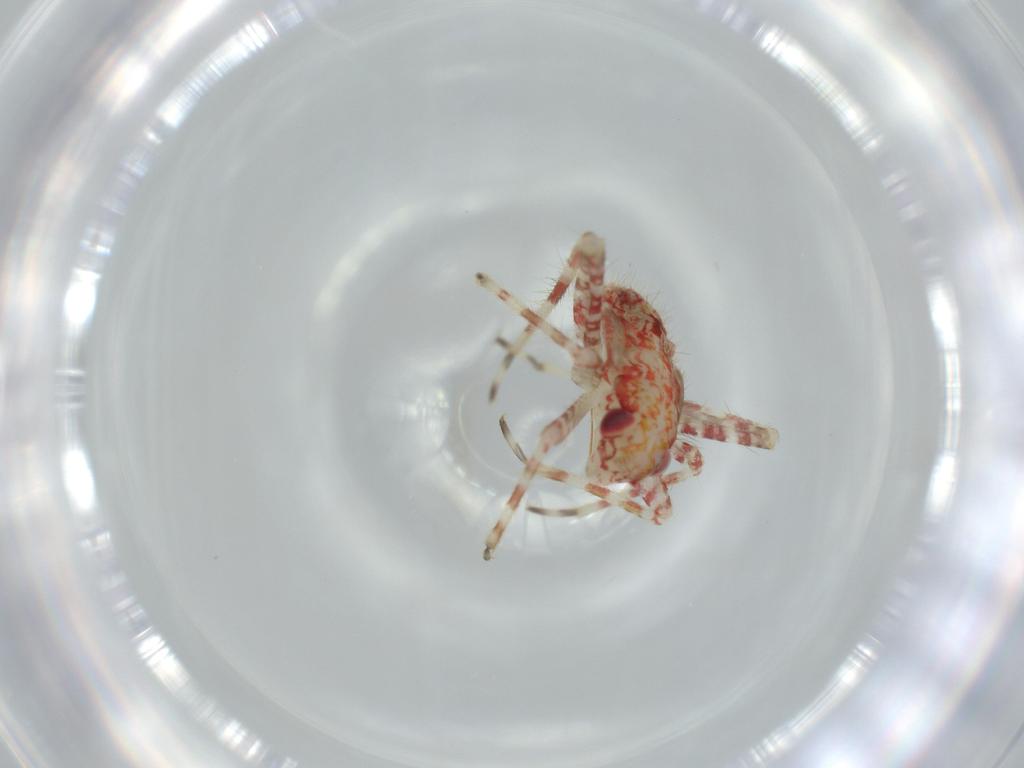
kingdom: Animalia
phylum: Arthropoda
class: Insecta
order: Hemiptera
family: Miridae
